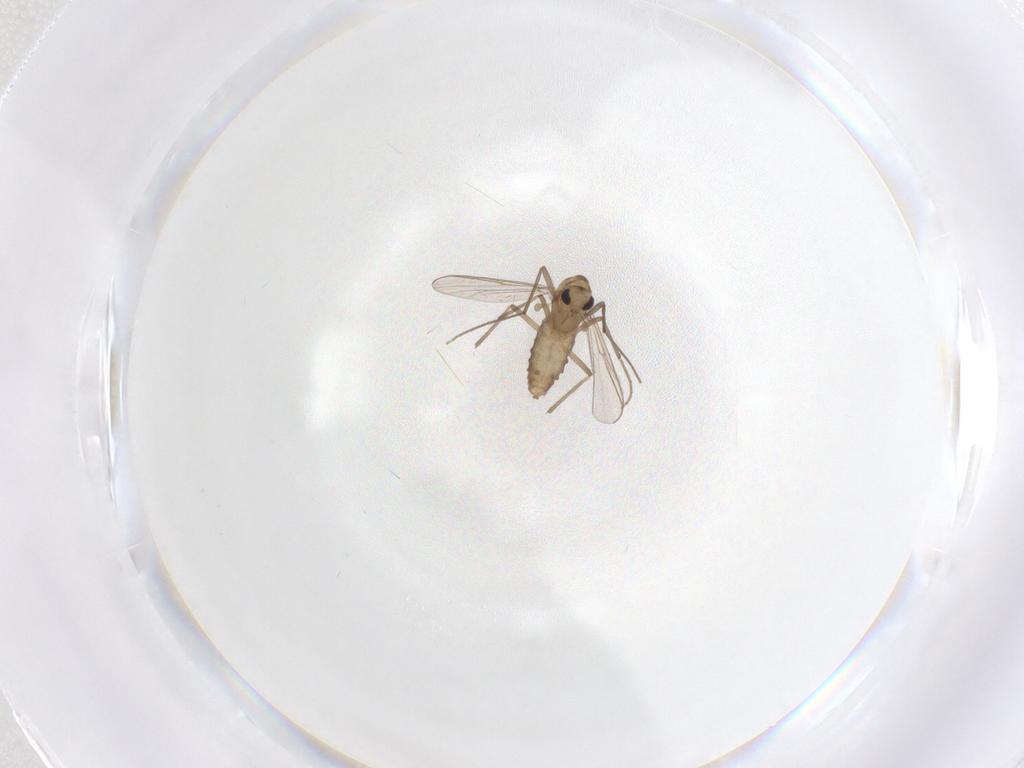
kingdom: Animalia
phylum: Arthropoda
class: Insecta
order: Diptera
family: Chironomidae
